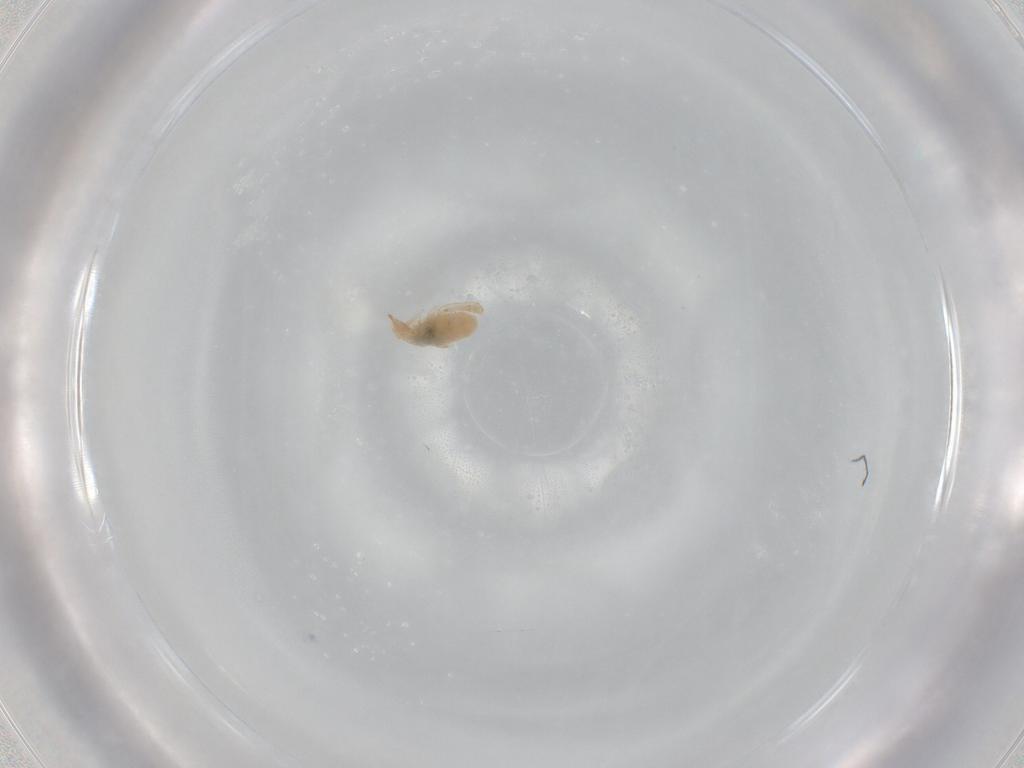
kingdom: Animalia
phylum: Arthropoda
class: Arachnida
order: Trombidiformes
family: Bdellidae
